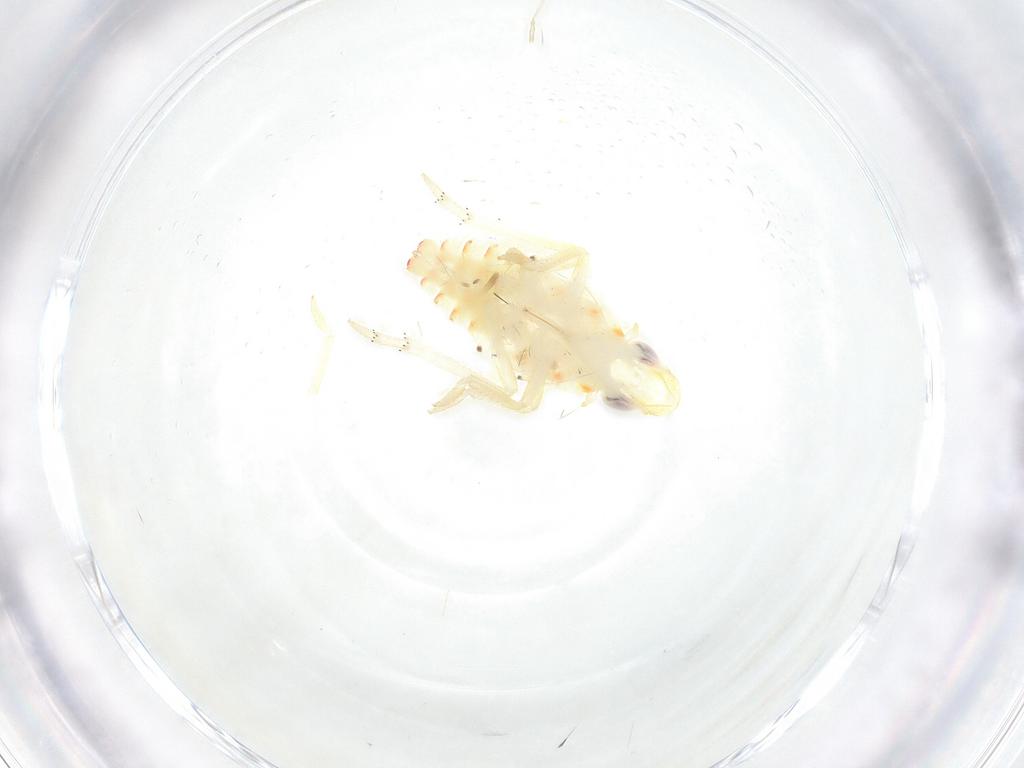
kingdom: Animalia
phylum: Arthropoda
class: Insecta
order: Hemiptera
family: Tropiduchidae
